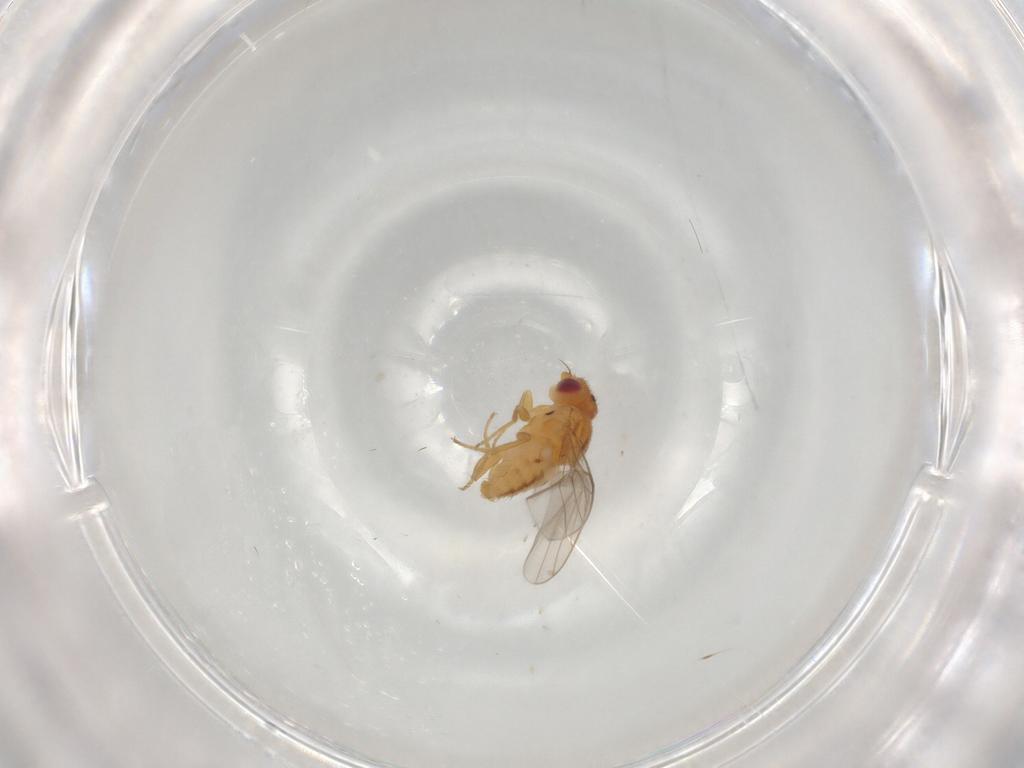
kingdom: Animalia
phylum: Arthropoda
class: Insecta
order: Diptera
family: Chloropidae
